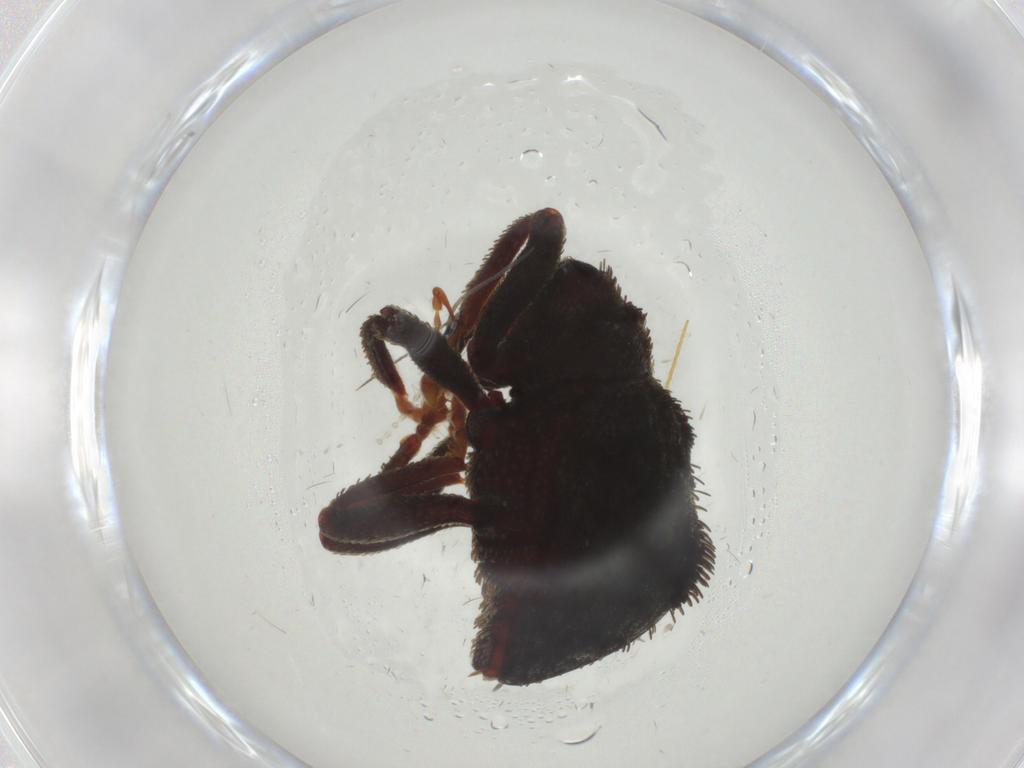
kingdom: Animalia
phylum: Arthropoda
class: Insecta
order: Coleoptera
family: Curculionidae
